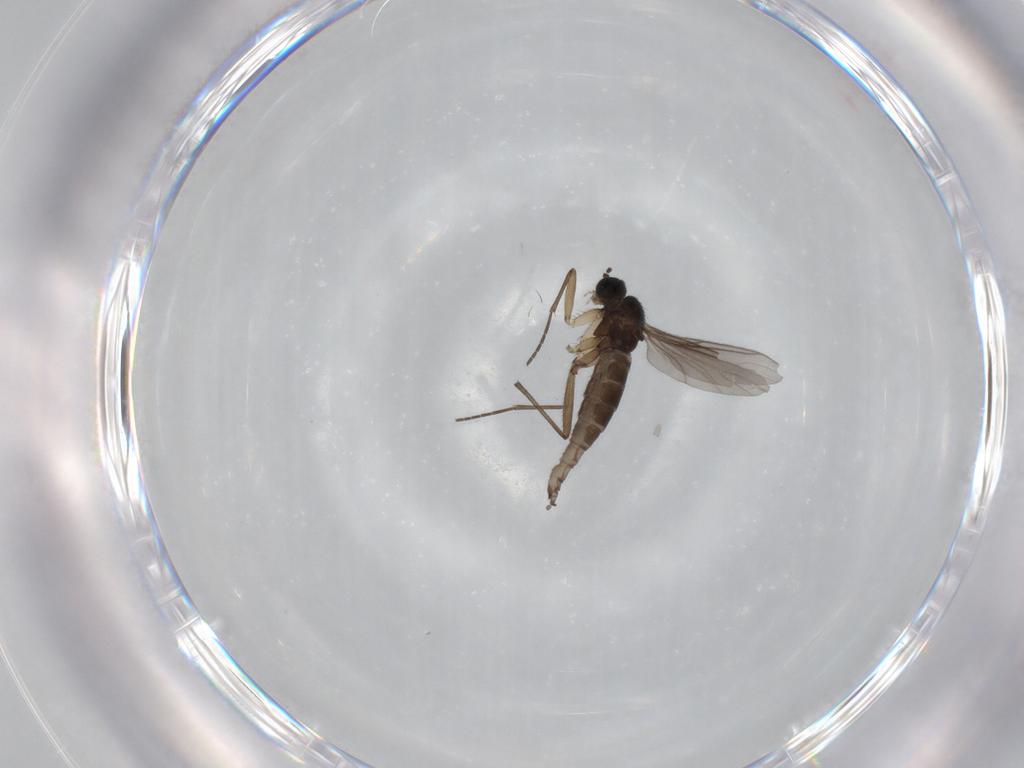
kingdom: Animalia
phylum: Arthropoda
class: Insecta
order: Diptera
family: Sciaridae
